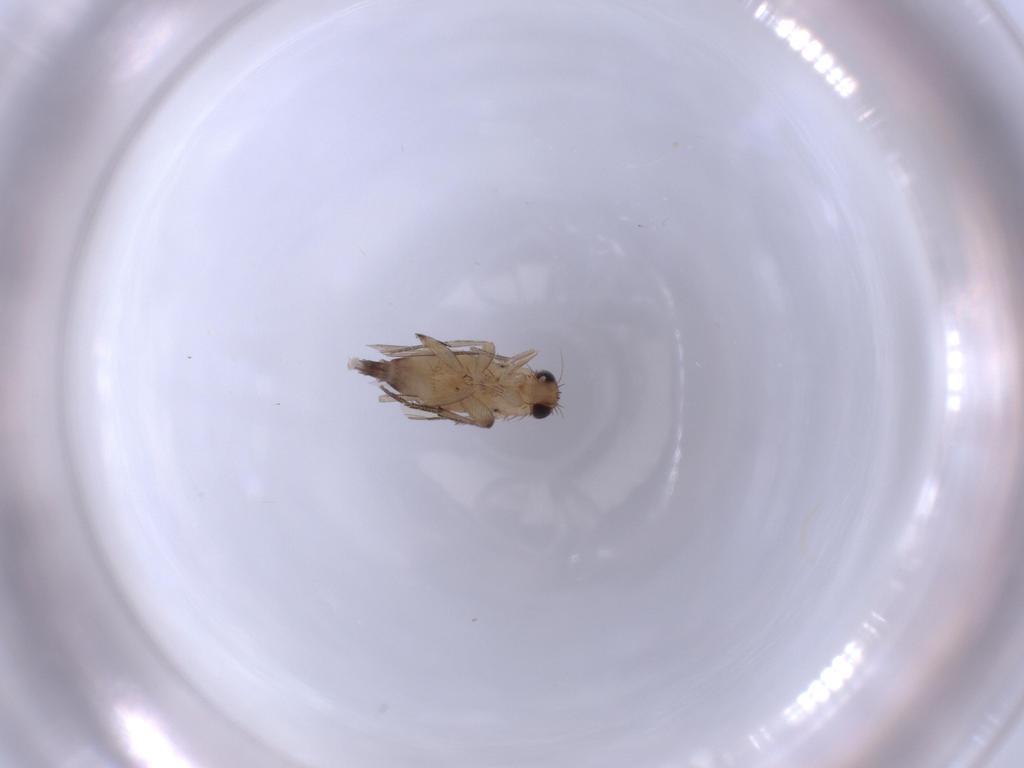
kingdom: Animalia
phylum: Arthropoda
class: Insecta
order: Diptera
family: Phoridae
